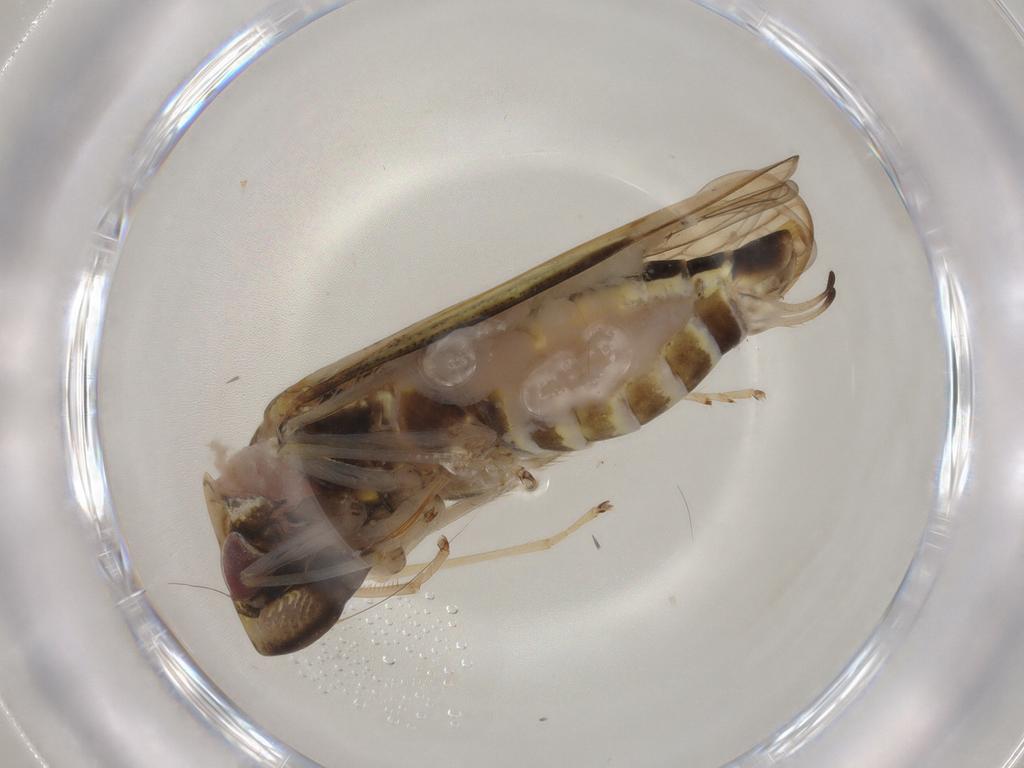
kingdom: Animalia
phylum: Arthropoda
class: Insecta
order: Hemiptera
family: Cicadellidae
